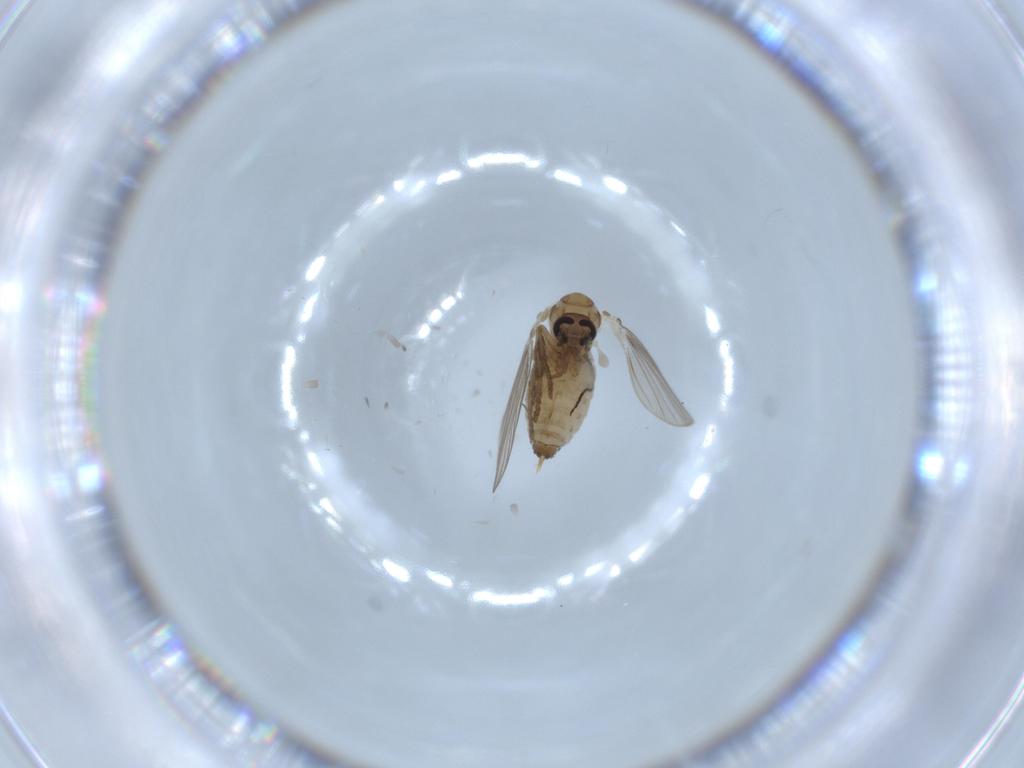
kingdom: Animalia
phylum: Arthropoda
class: Insecta
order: Diptera
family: Psychodidae
